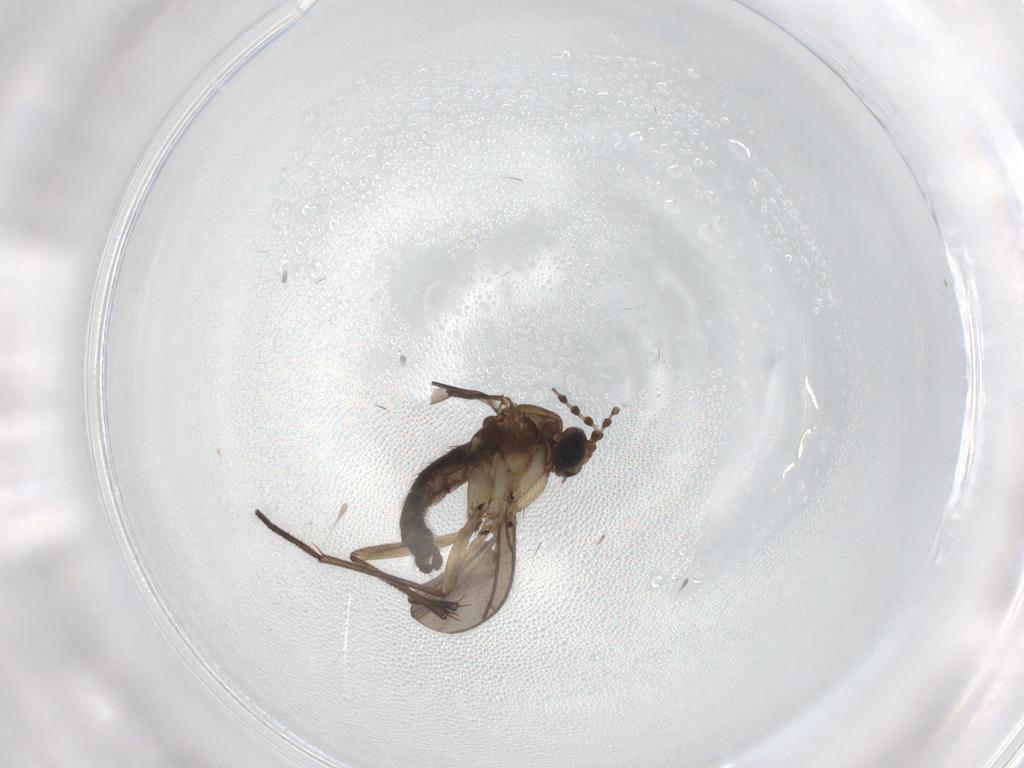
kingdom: Animalia
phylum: Arthropoda
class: Insecta
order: Diptera
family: Sciaridae
